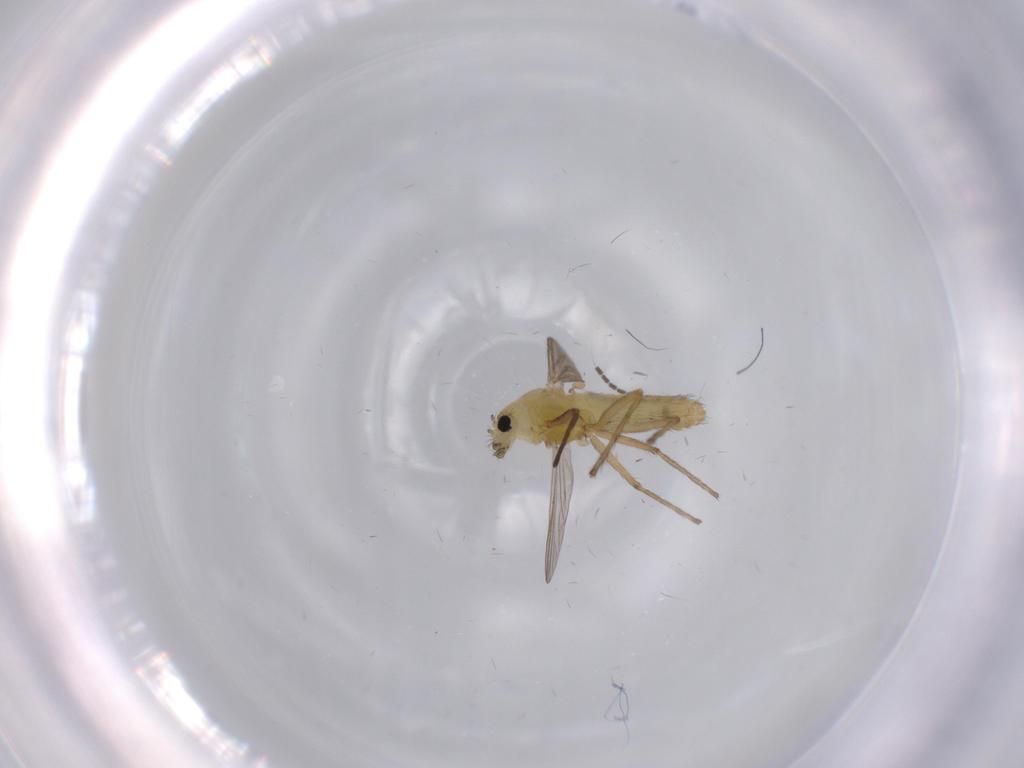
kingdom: Animalia
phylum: Arthropoda
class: Insecta
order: Diptera
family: Chironomidae
